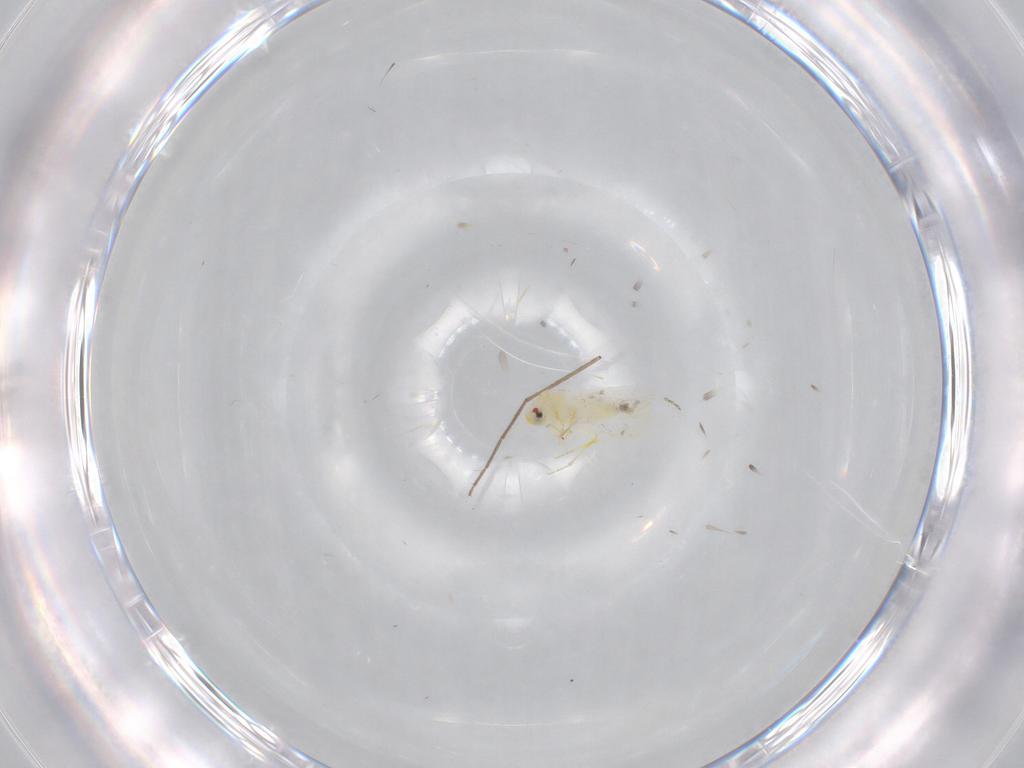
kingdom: Animalia
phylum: Arthropoda
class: Insecta
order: Hemiptera
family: Aleyrodidae
